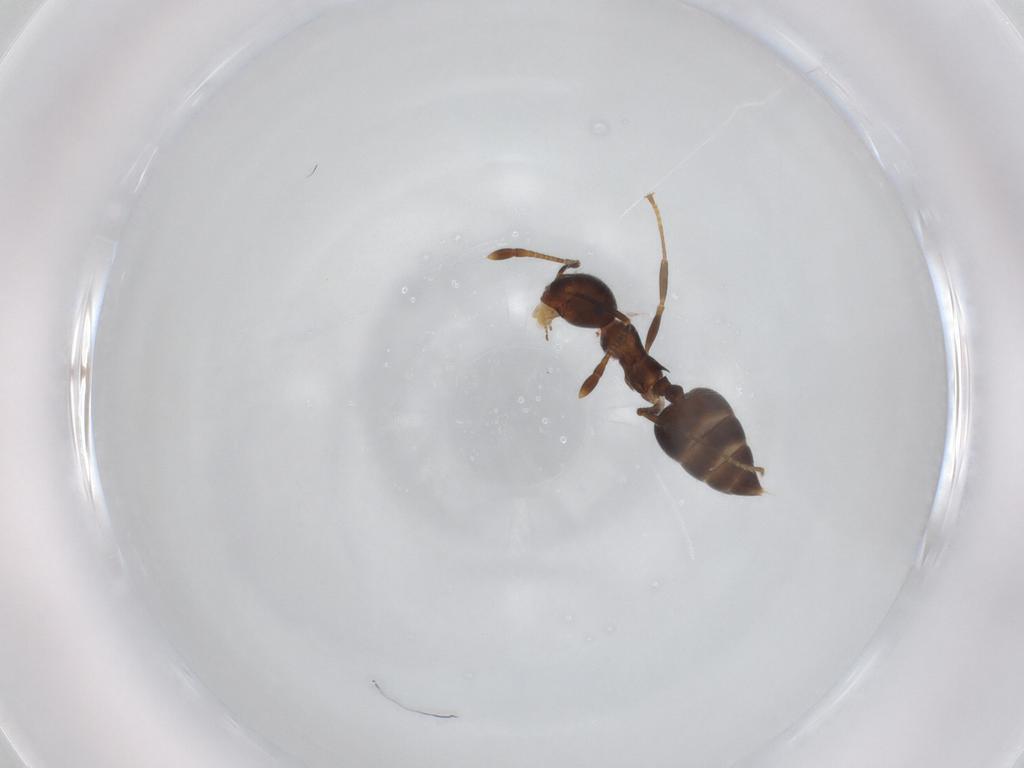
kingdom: Animalia
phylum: Arthropoda
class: Insecta
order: Hymenoptera
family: Formicidae
